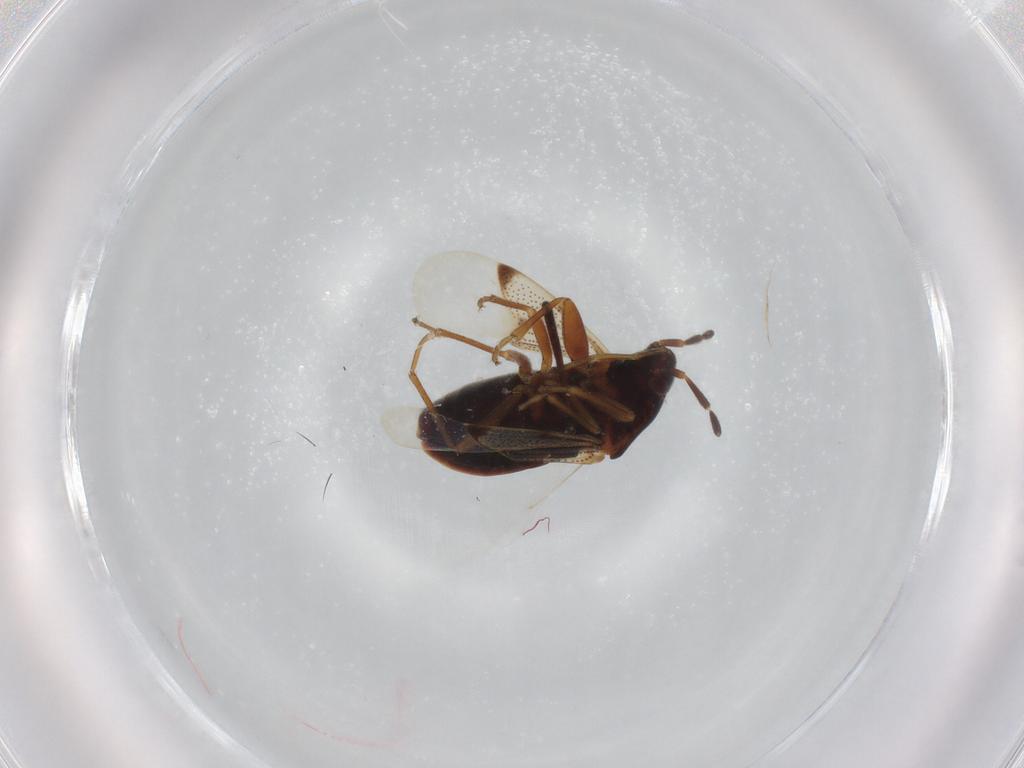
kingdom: Animalia
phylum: Arthropoda
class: Insecta
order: Hemiptera
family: Rhyparochromidae
